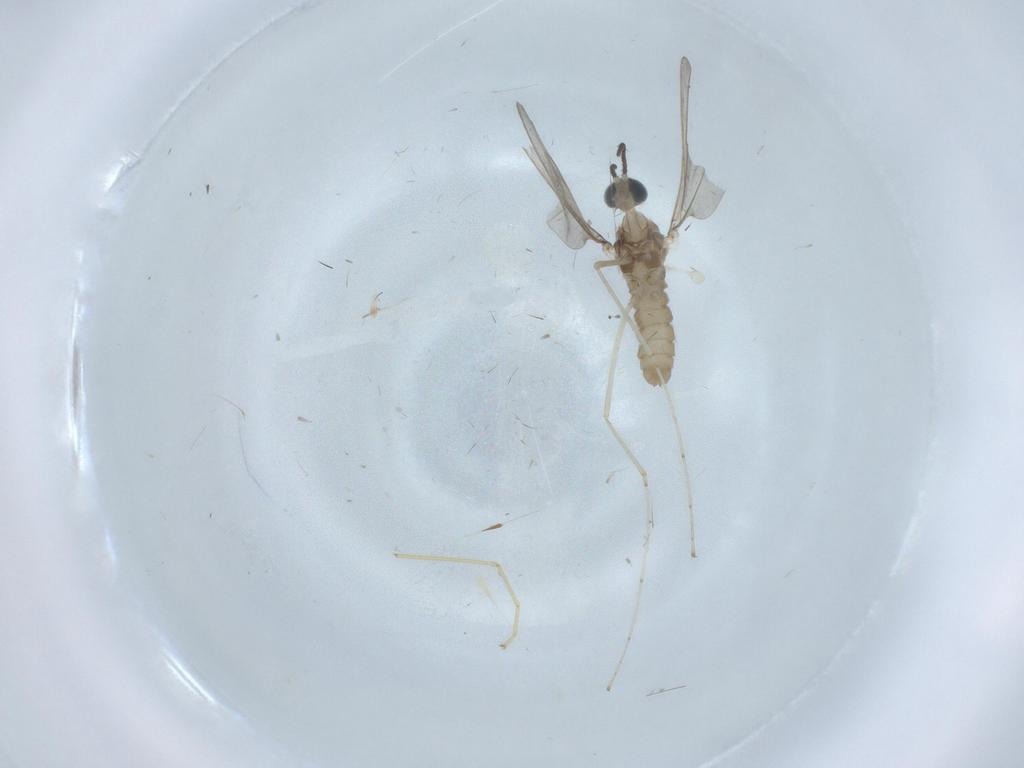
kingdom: Animalia
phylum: Arthropoda
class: Insecta
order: Diptera
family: Cecidomyiidae
